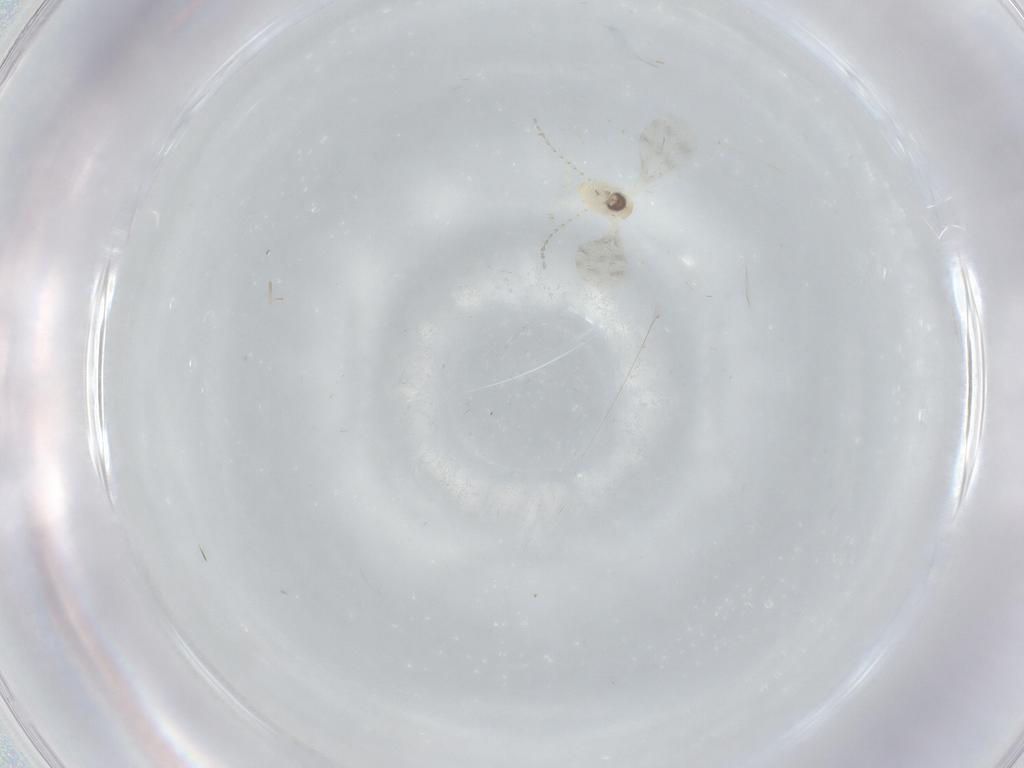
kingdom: Animalia
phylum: Arthropoda
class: Insecta
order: Diptera
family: Cecidomyiidae
